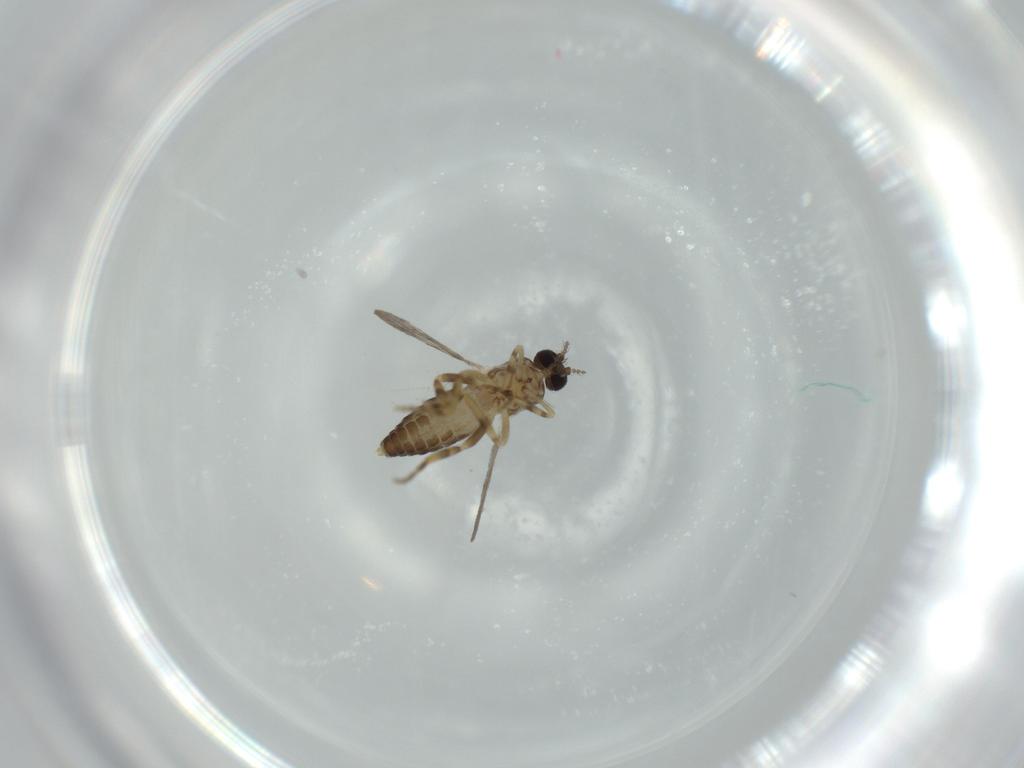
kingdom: Animalia
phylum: Arthropoda
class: Insecta
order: Diptera
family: Ceratopogonidae
